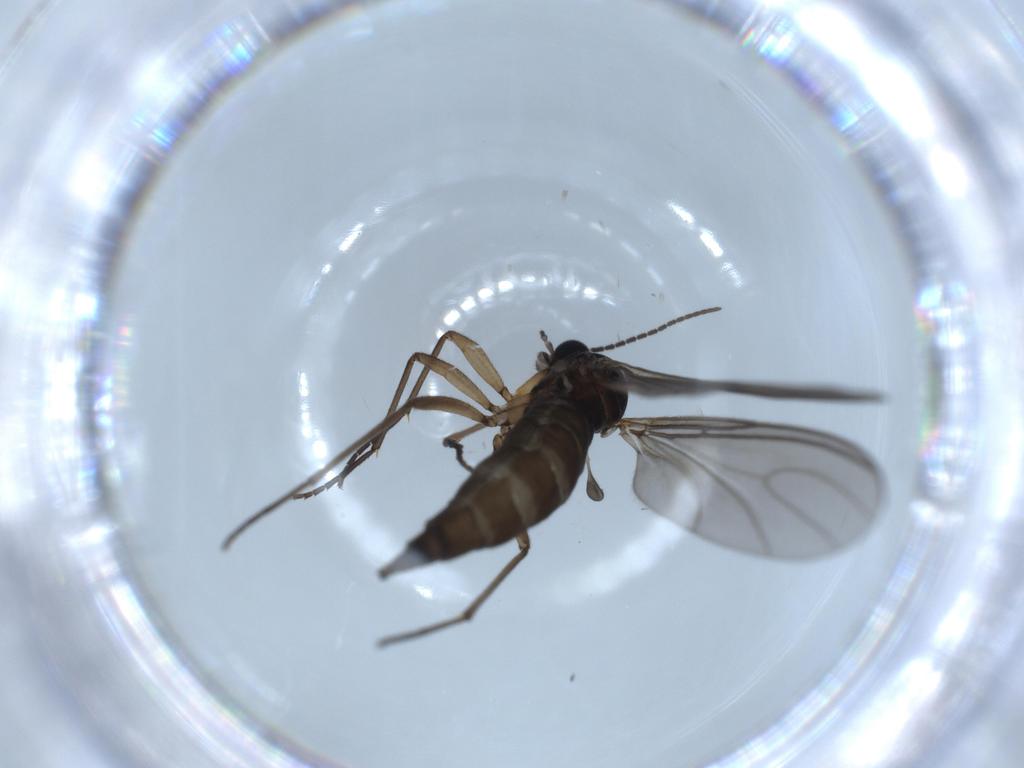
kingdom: Animalia
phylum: Arthropoda
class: Insecta
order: Diptera
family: Sciaridae
